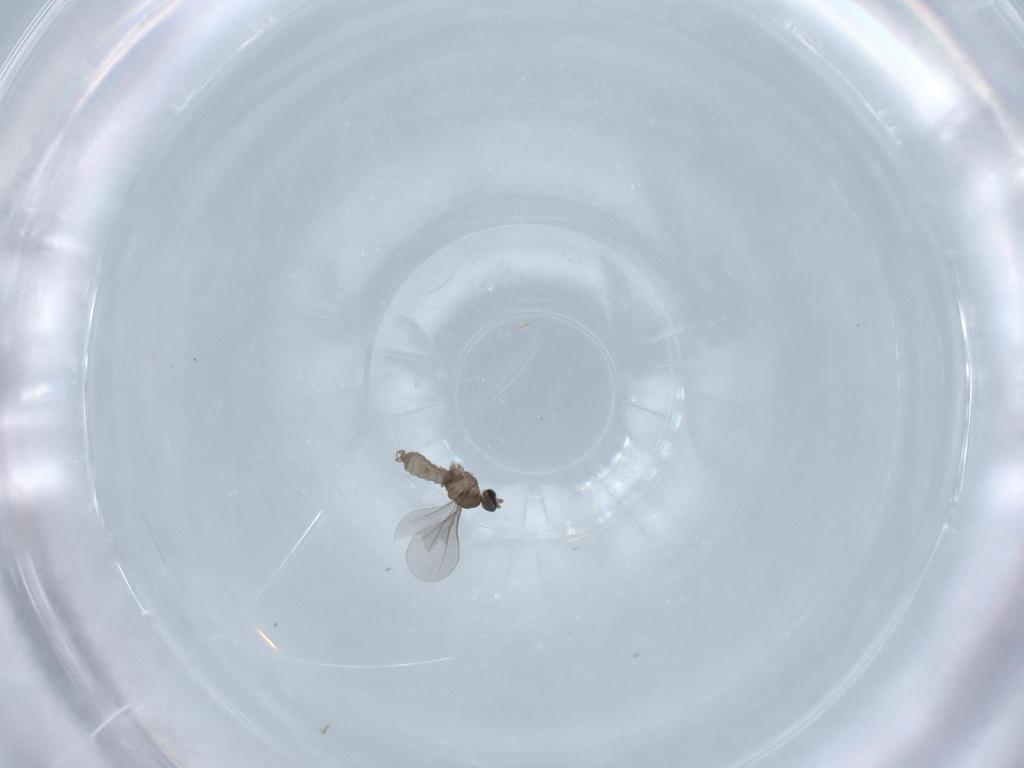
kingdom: Animalia
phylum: Arthropoda
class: Insecta
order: Diptera
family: Cecidomyiidae
